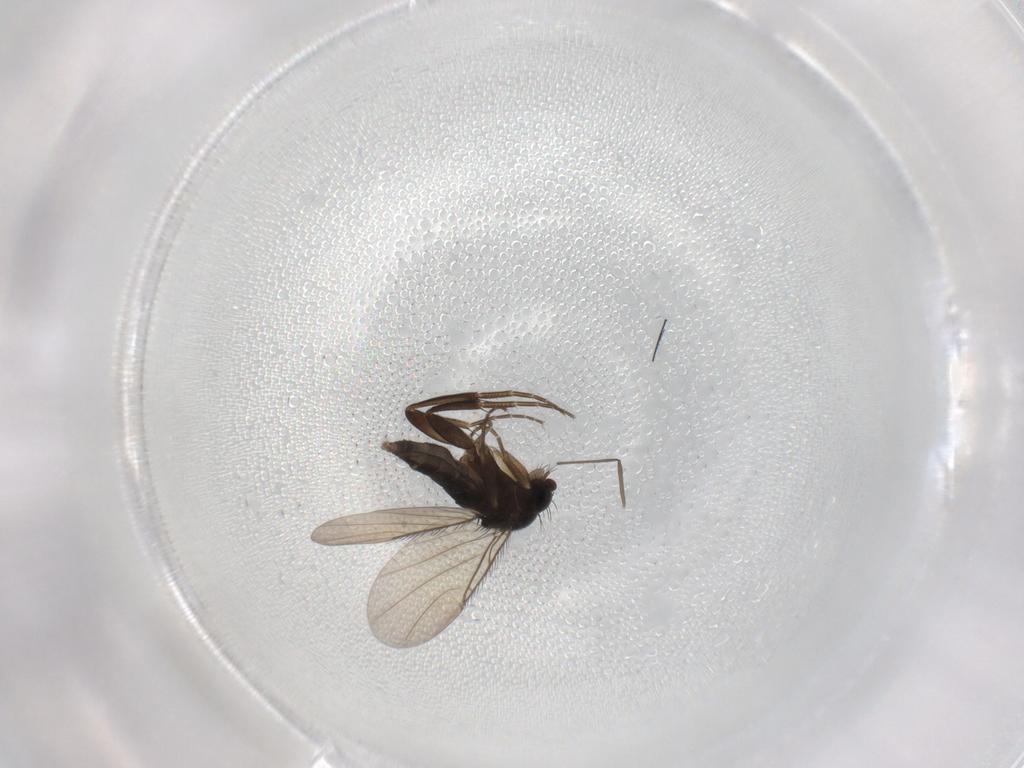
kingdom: Animalia
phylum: Arthropoda
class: Insecta
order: Diptera
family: Phoridae
